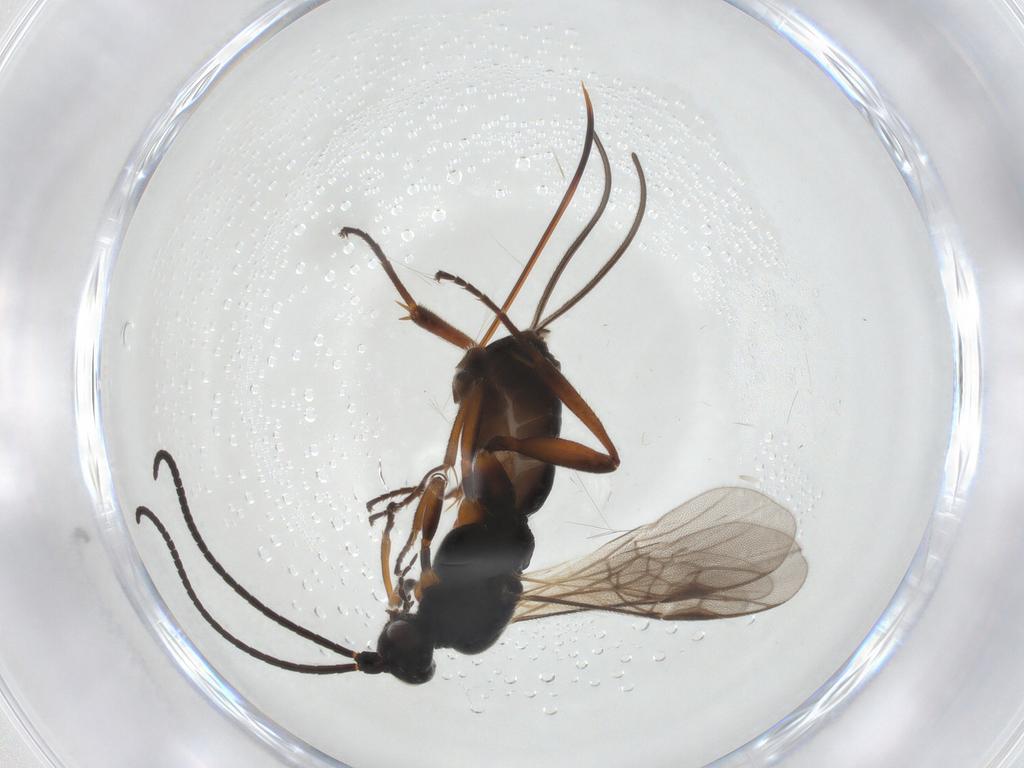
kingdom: Animalia
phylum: Arthropoda
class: Insecta
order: Hymenoptera
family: Braconidae
